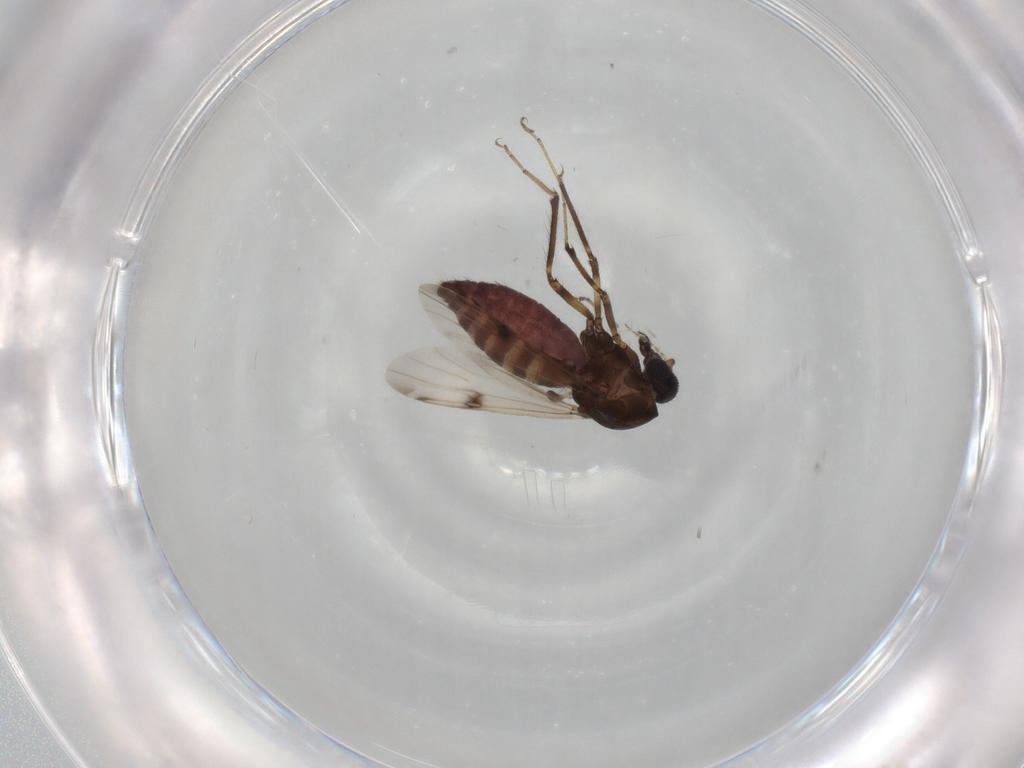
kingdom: Animalia
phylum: Arthropoda
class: Insecta
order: Diptera
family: Ceratopogonidae
